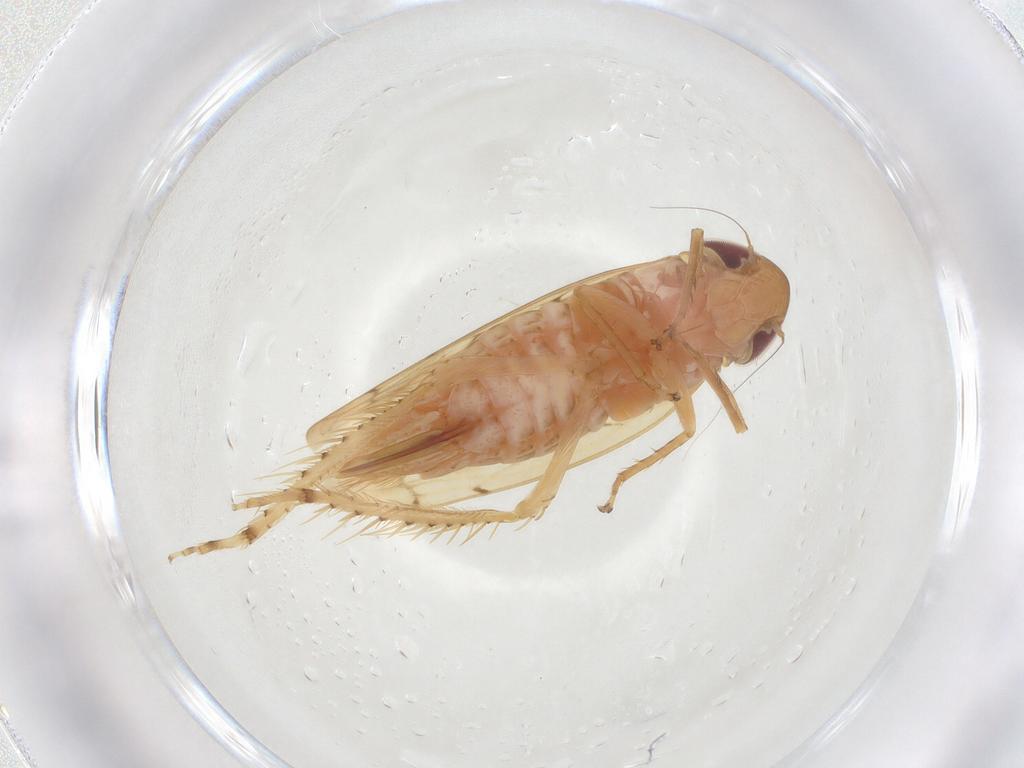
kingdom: Animalia
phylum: Arthropoda
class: Insecta
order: Hemiptera
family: Cicadellidae
